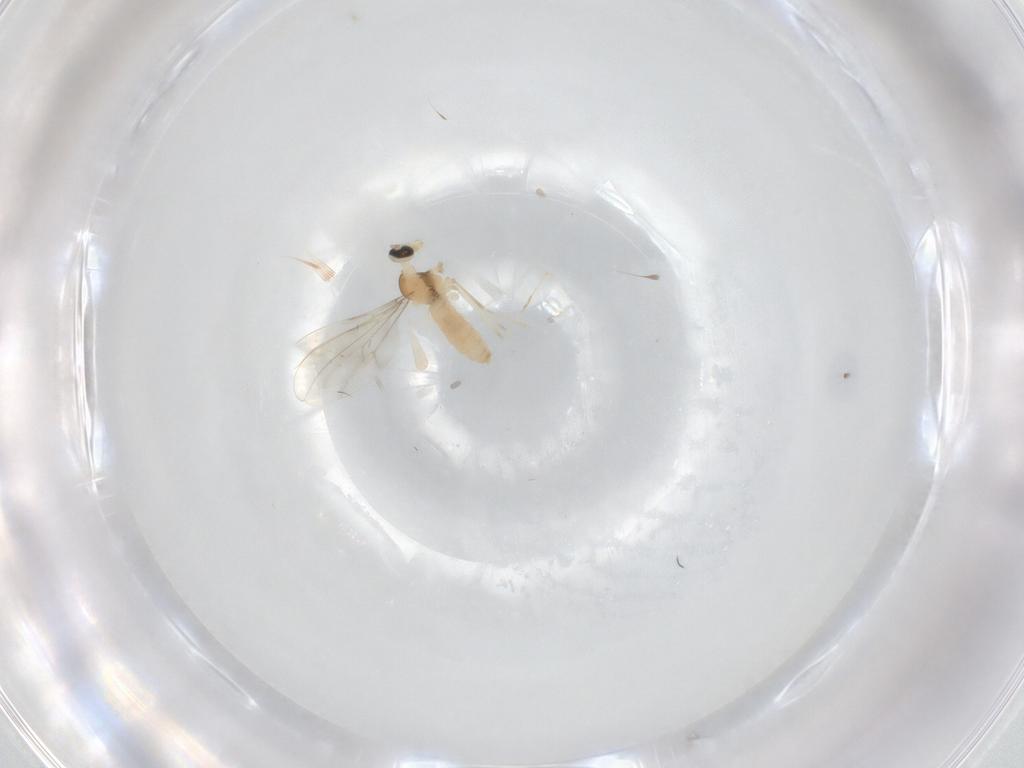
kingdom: Animalia
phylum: Arthropoda
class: Insecta
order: Diptera
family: Cecidomyiidae
